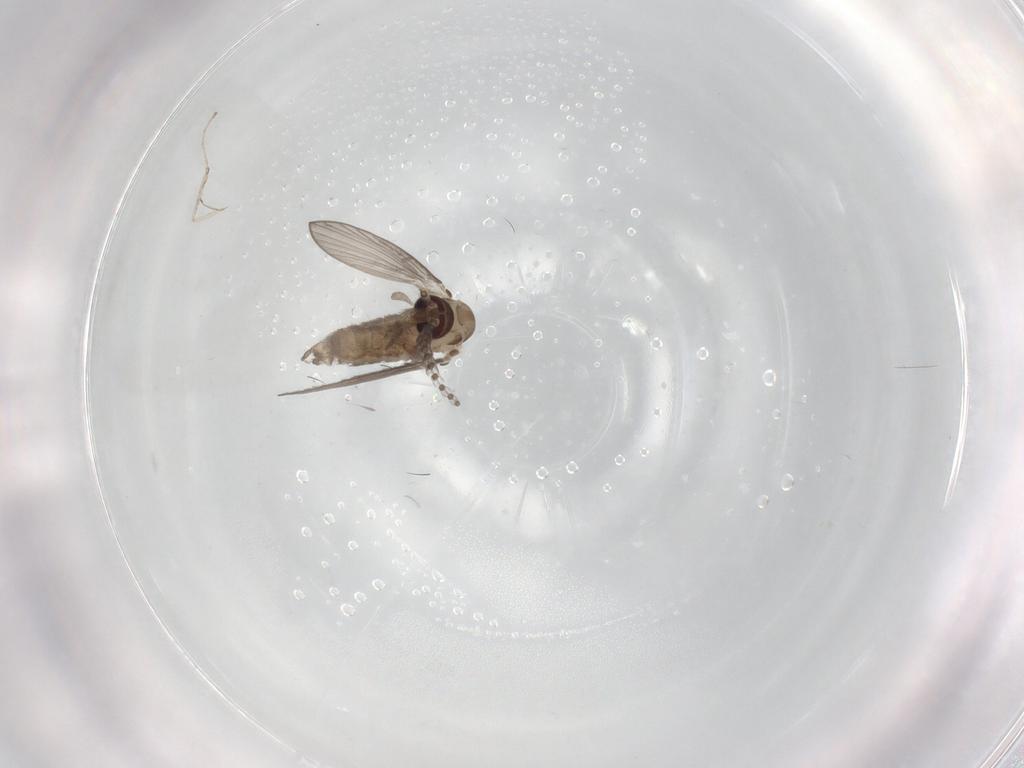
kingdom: Animalia
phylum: Arthropoda
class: Insecta
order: Diptera
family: Psychodidae
